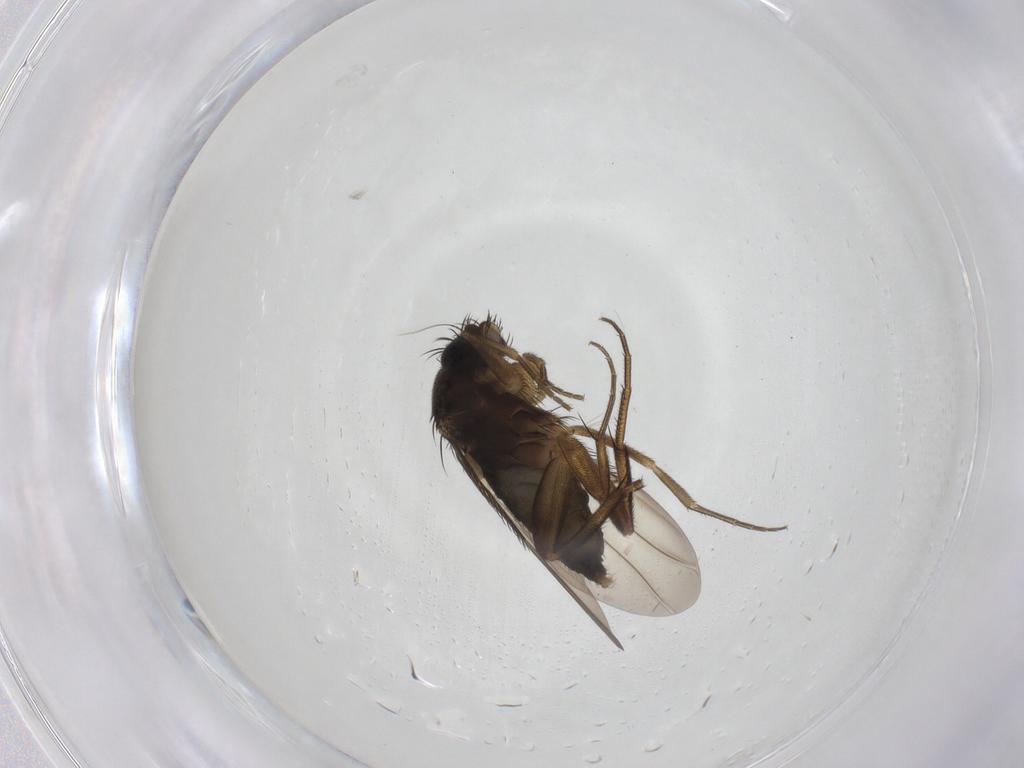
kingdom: Animalia
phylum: Arthropoda
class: Insecta
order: Diptera
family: Phoridae
